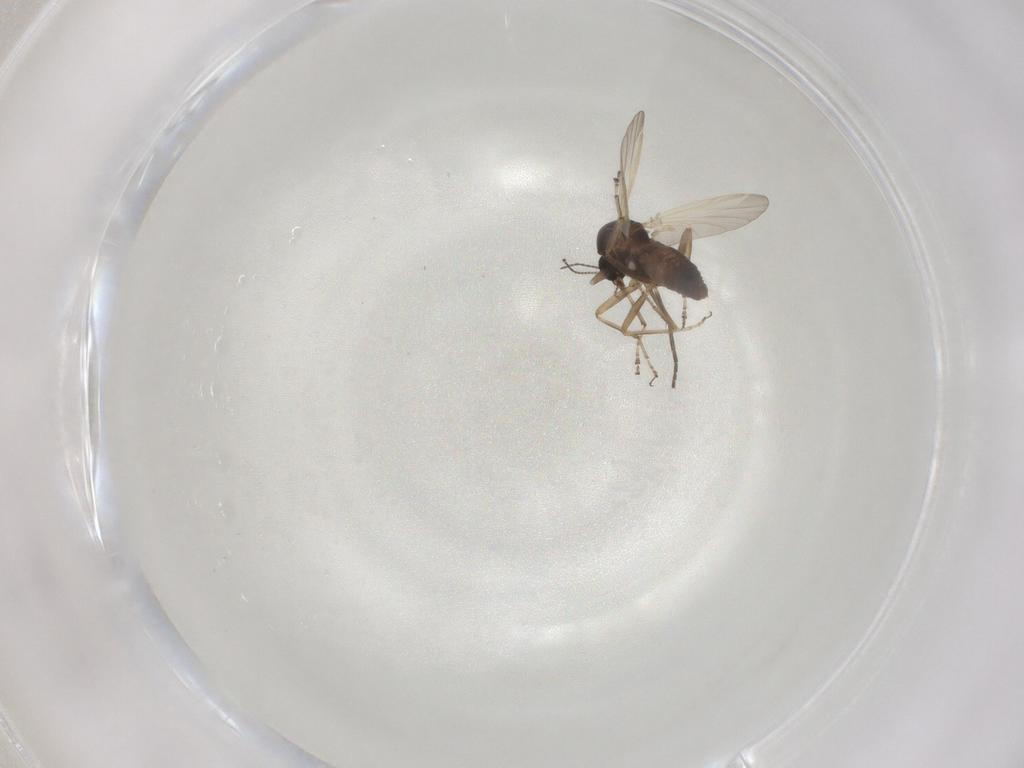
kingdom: Animalia
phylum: Arthropoda
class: Insecta
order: Diptera
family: Ceratopogonidae
